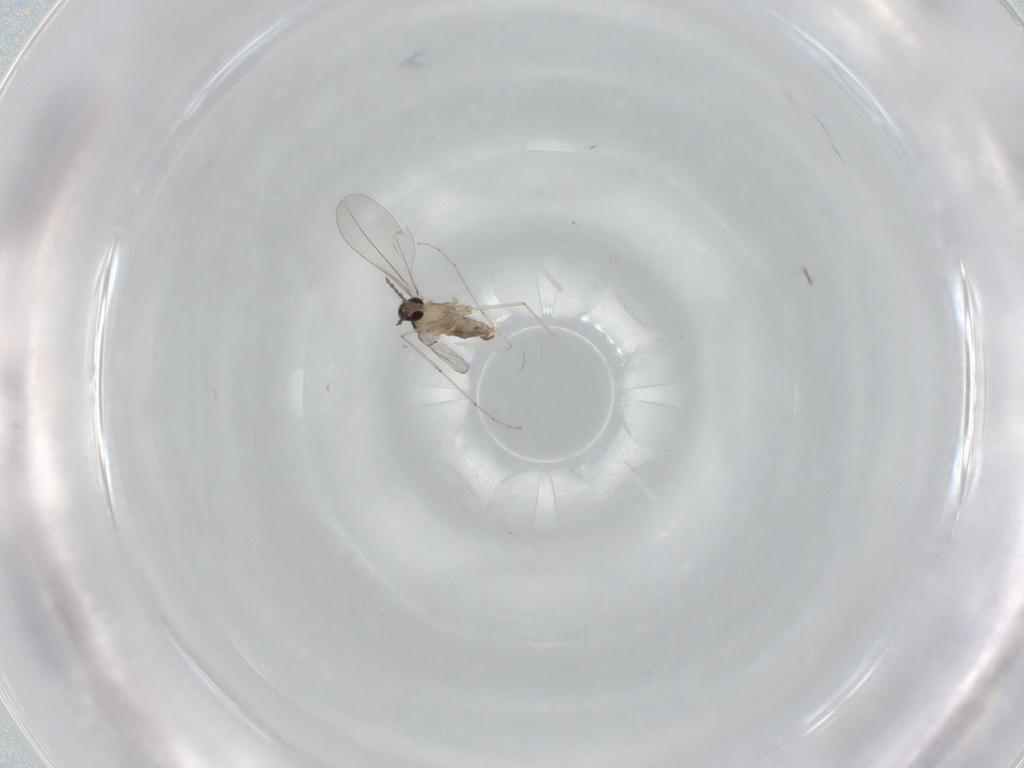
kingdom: Animalia
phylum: Arthropoda
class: Insecta
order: Diptera
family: Cecidomyiidae
